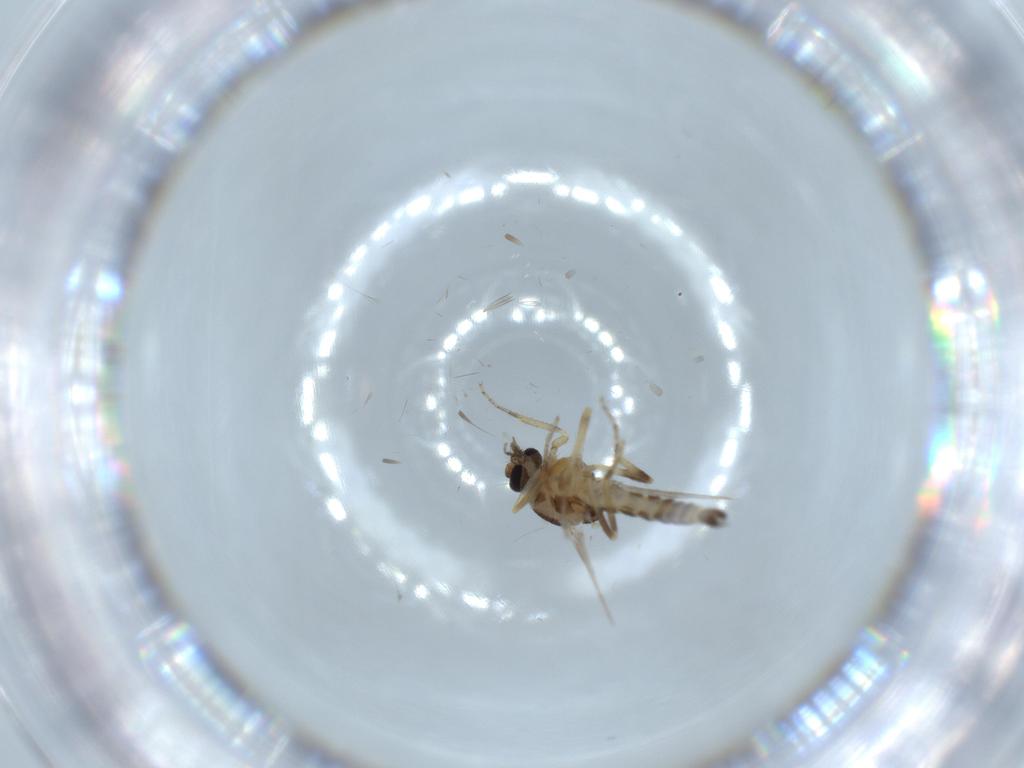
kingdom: Animalia
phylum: Arthropoda
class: Insecta
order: Diptera
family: Ceratopogonidae
